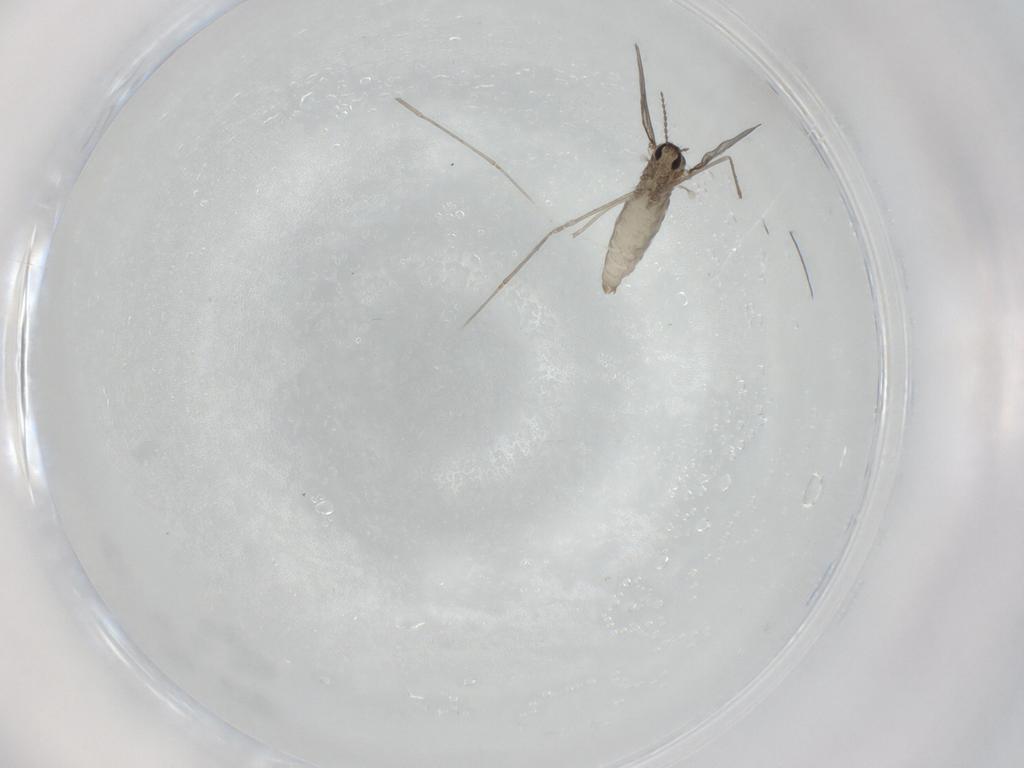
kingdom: Animalia
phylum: Arthropoda
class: Insecta
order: Diptera
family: Cecidomyiidae
